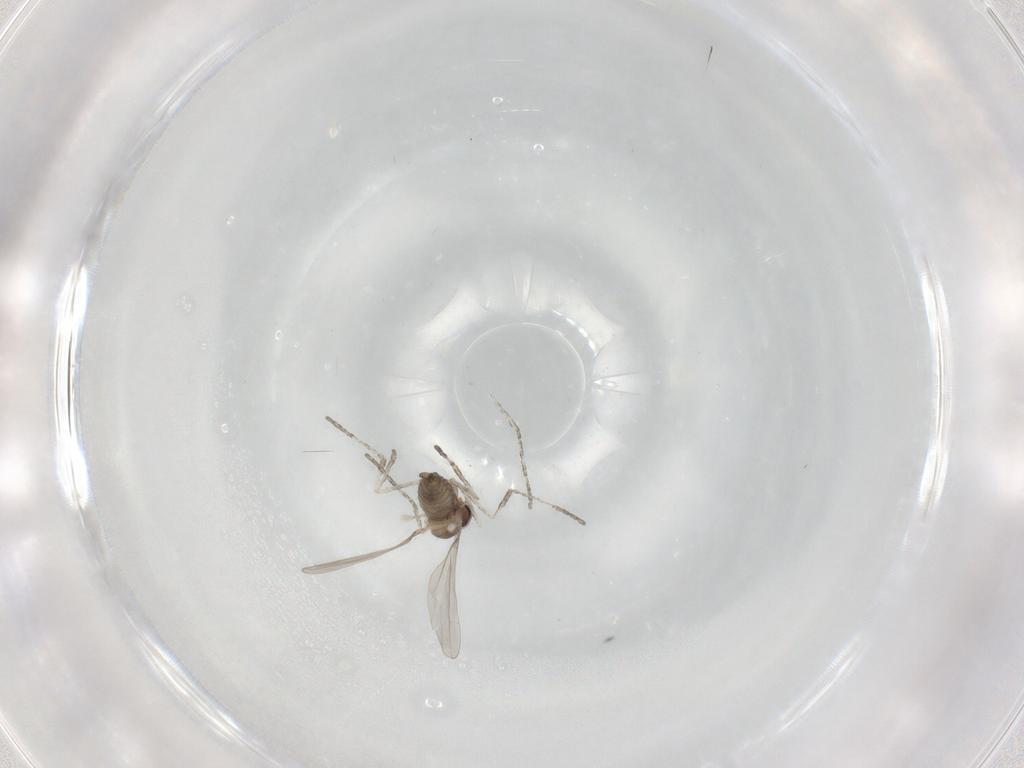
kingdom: Animalia
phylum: Arthropoda
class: Insecta
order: Diptera
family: Cecidomyiidae
